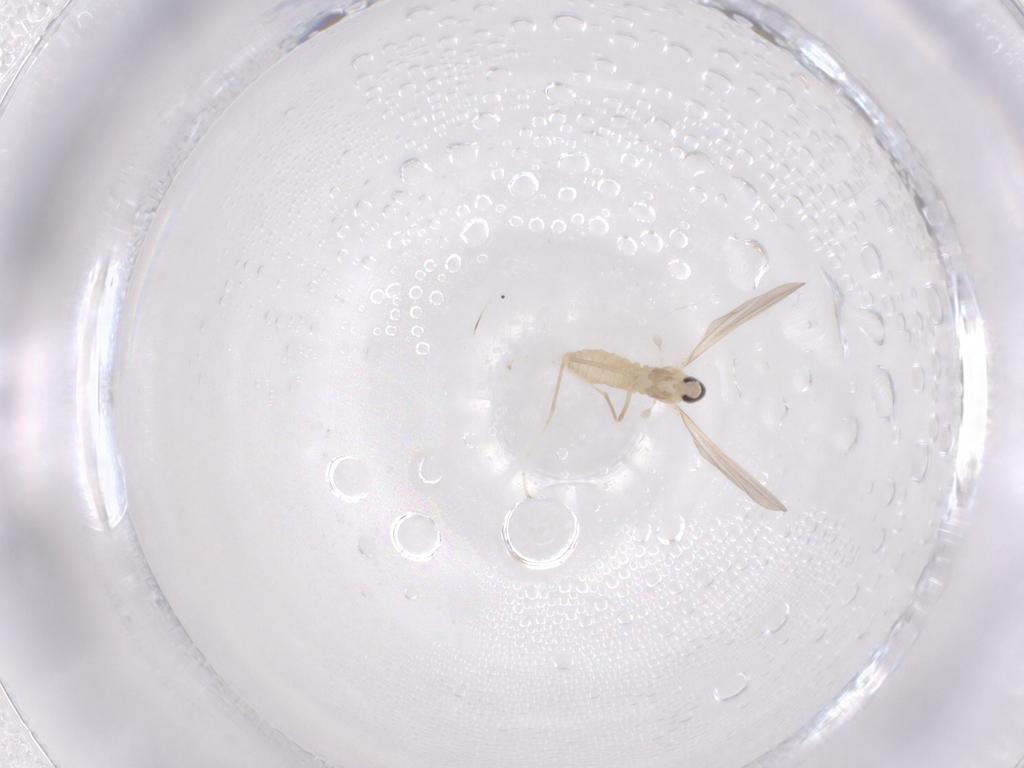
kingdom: Animalia
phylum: Arthropoda
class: Insecta
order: Diptera
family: Cecidomyiidae
